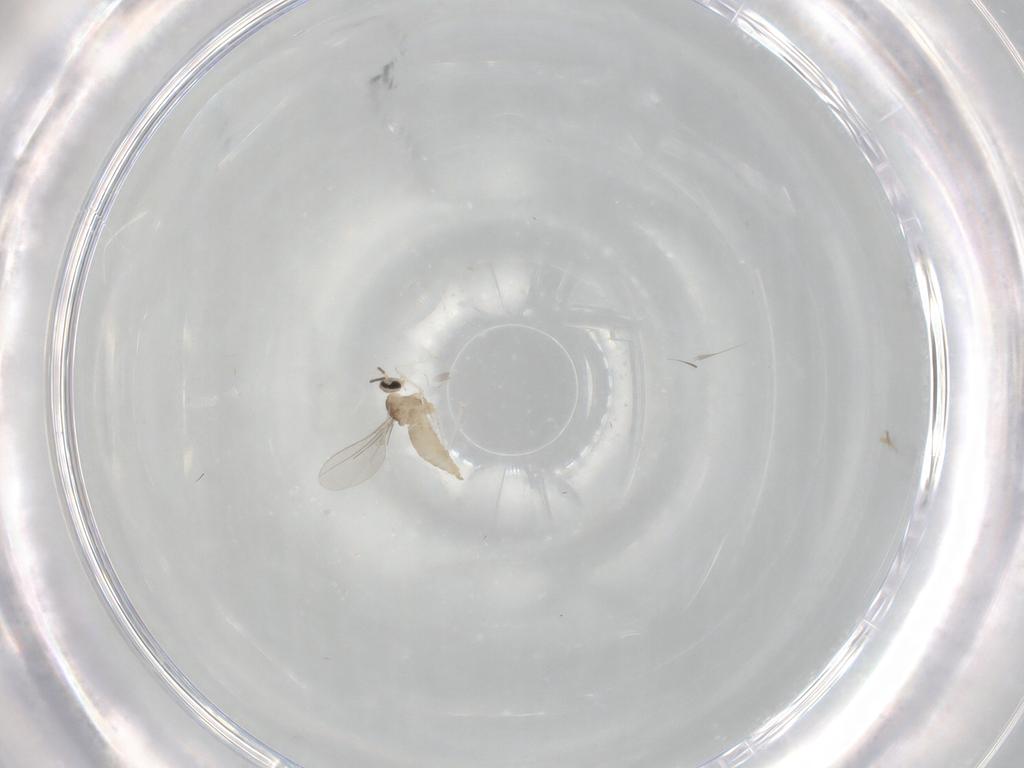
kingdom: Animalia
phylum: Arthropoda
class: Insecta
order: Diptera
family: Cecidomyiidae
